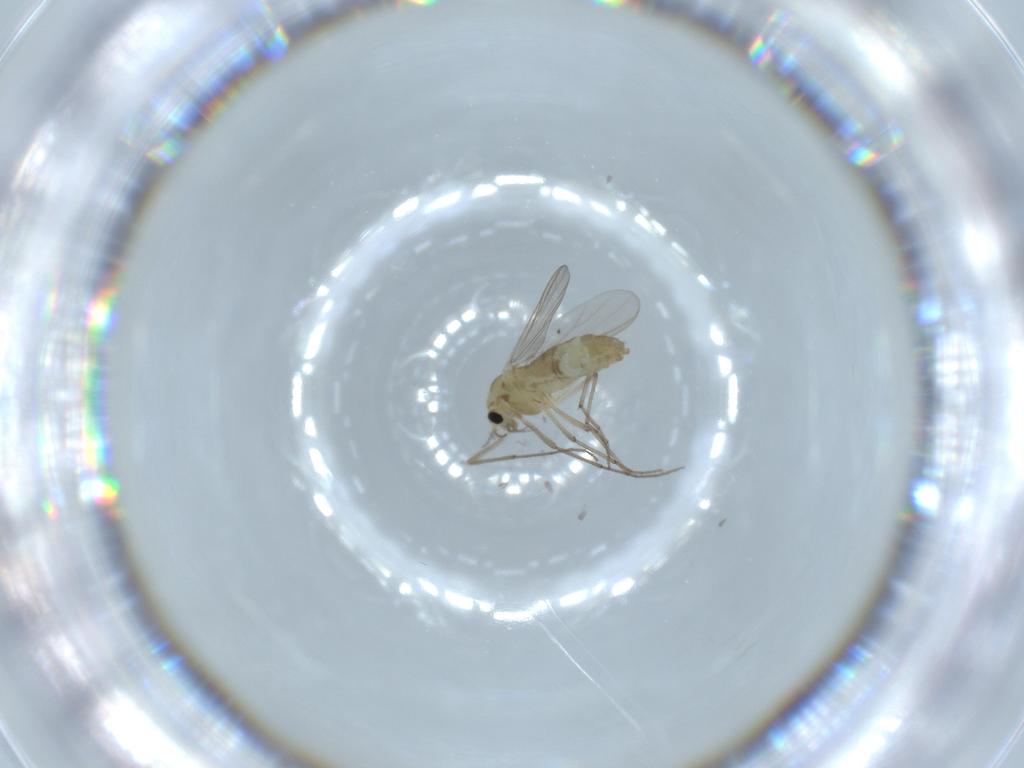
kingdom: Animalia
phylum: Arthropoda
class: Insecta
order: Diptera
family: Chironomidae
